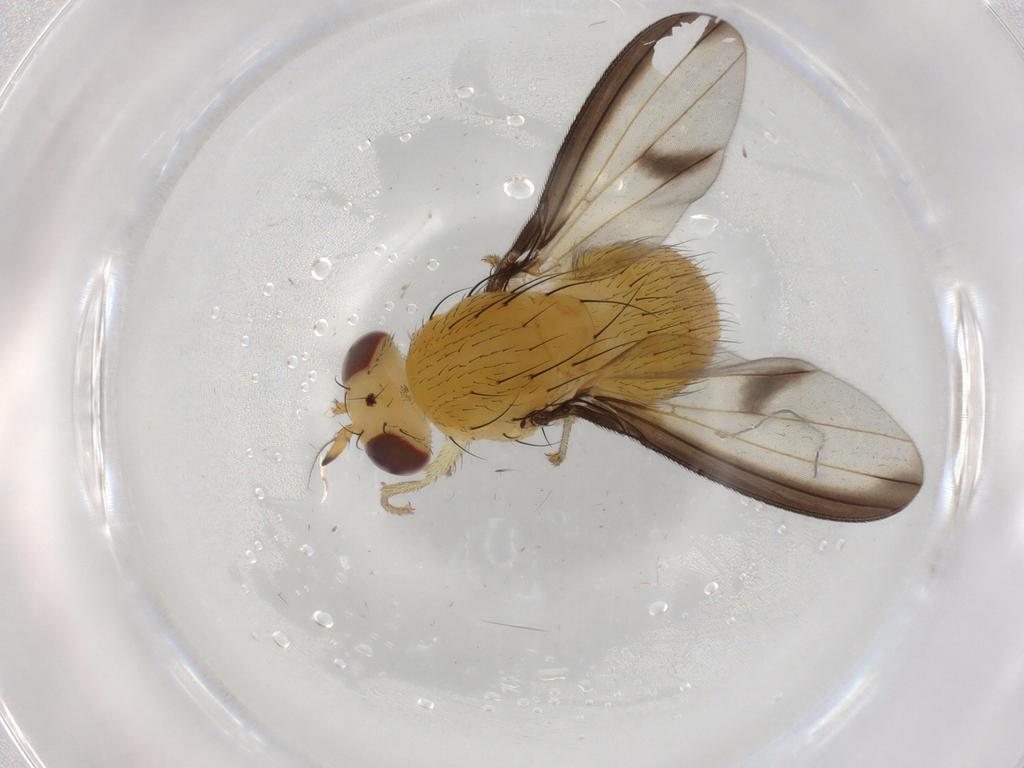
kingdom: Animalia
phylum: Arthropoda
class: Insecta
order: Diptera
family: Lauxaniidae
